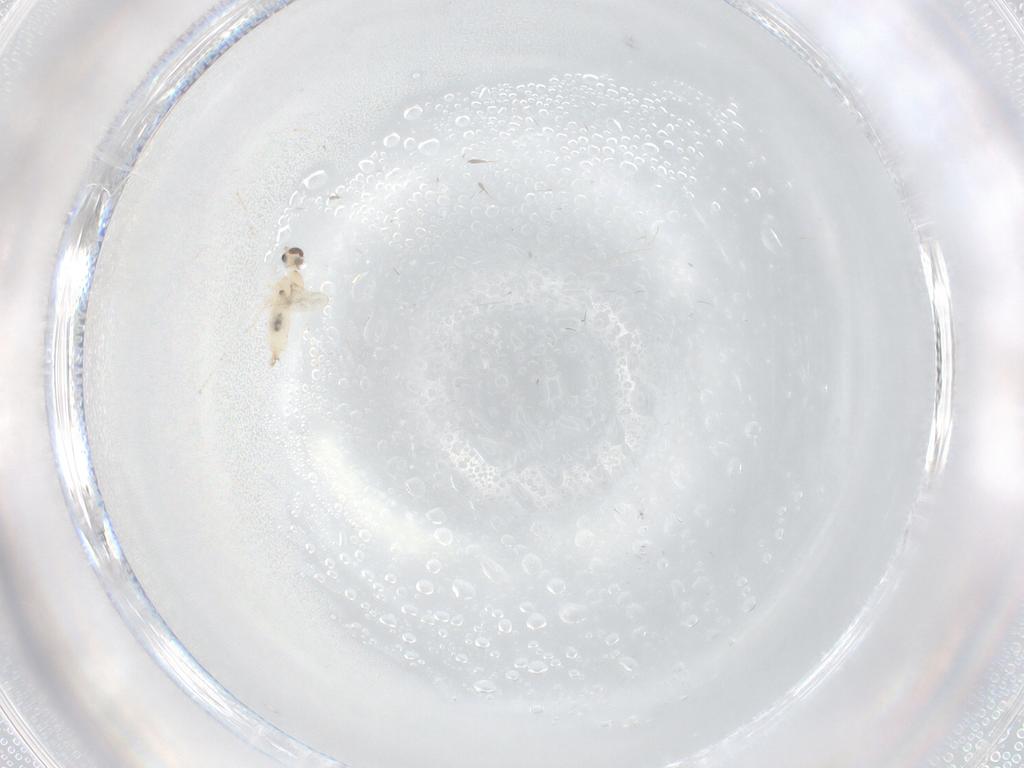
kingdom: Animalia
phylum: Arthropoda
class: Insecta
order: Diptera
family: Cecidomyiidae
